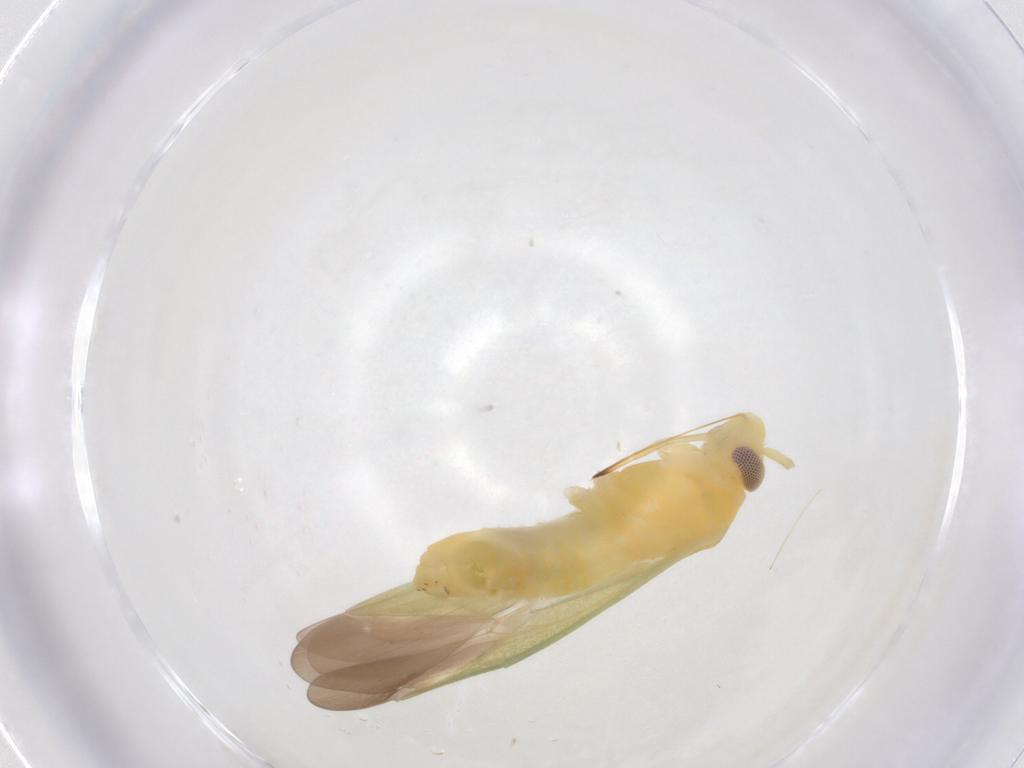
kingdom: Animalia
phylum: Arthropoda
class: Insecta
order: Hemiptera
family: Miridae
